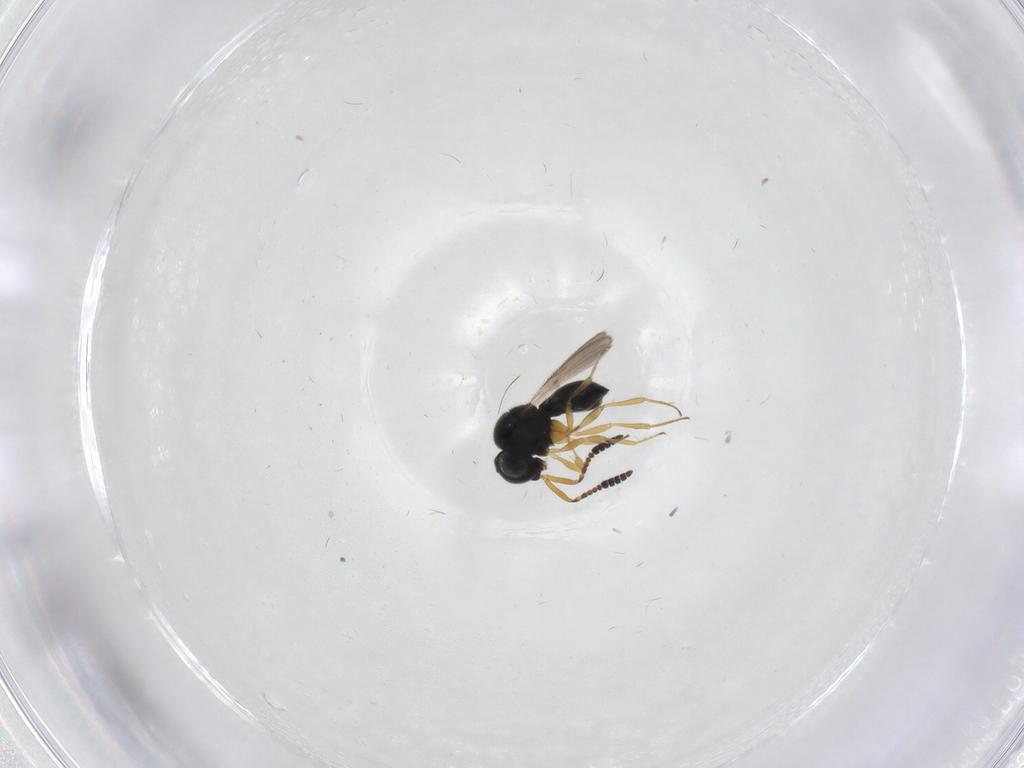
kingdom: Animalia
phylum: Arthropoda
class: Insecta
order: Hymenoptera
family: Scelionidae
